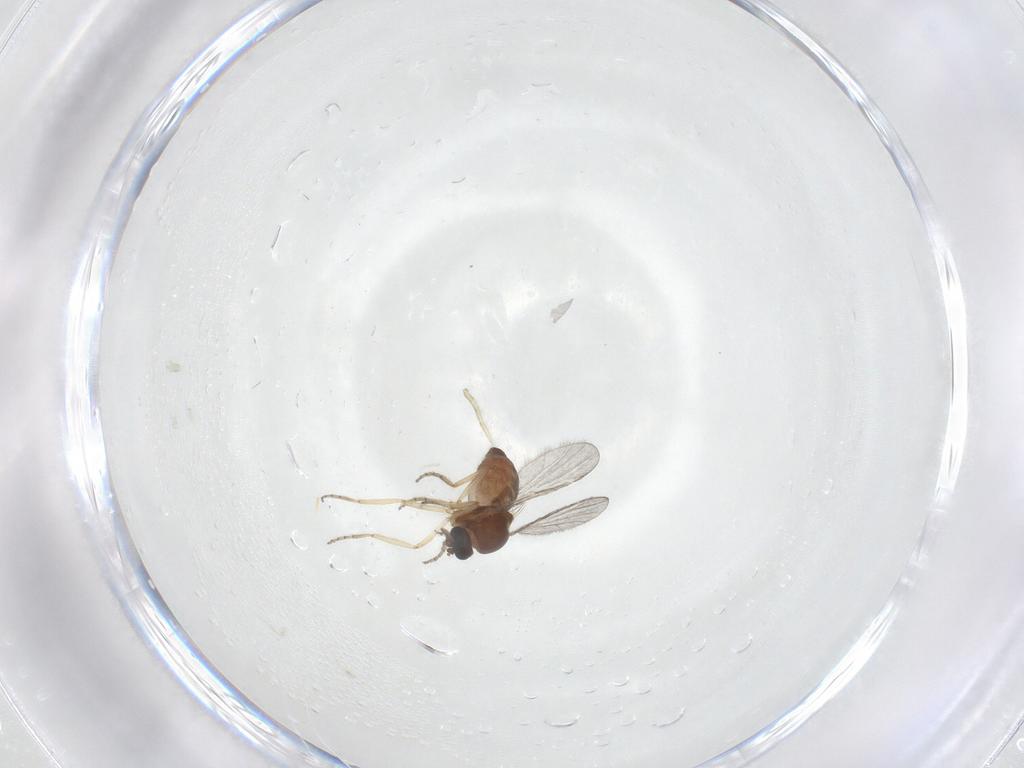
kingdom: Animalia
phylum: Arthropoda
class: Insecta
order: Diptera
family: Ceratopogonidae
